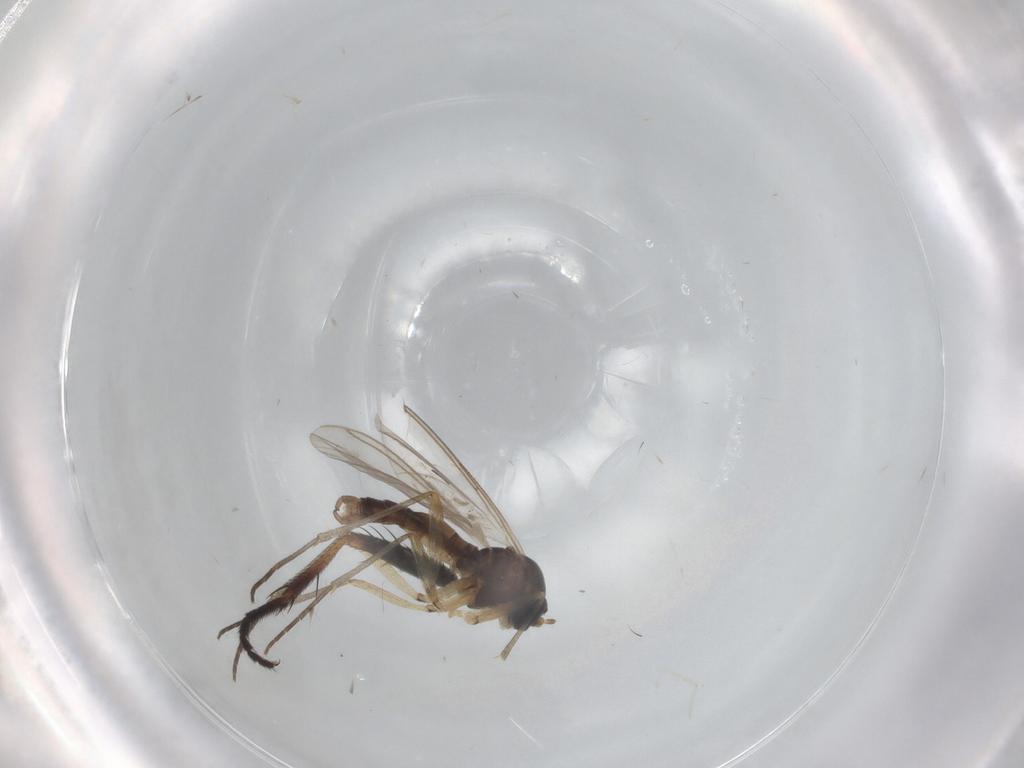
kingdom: Animalia
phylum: Arthropoda
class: Insecta
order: Diptera
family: Sciaridae
